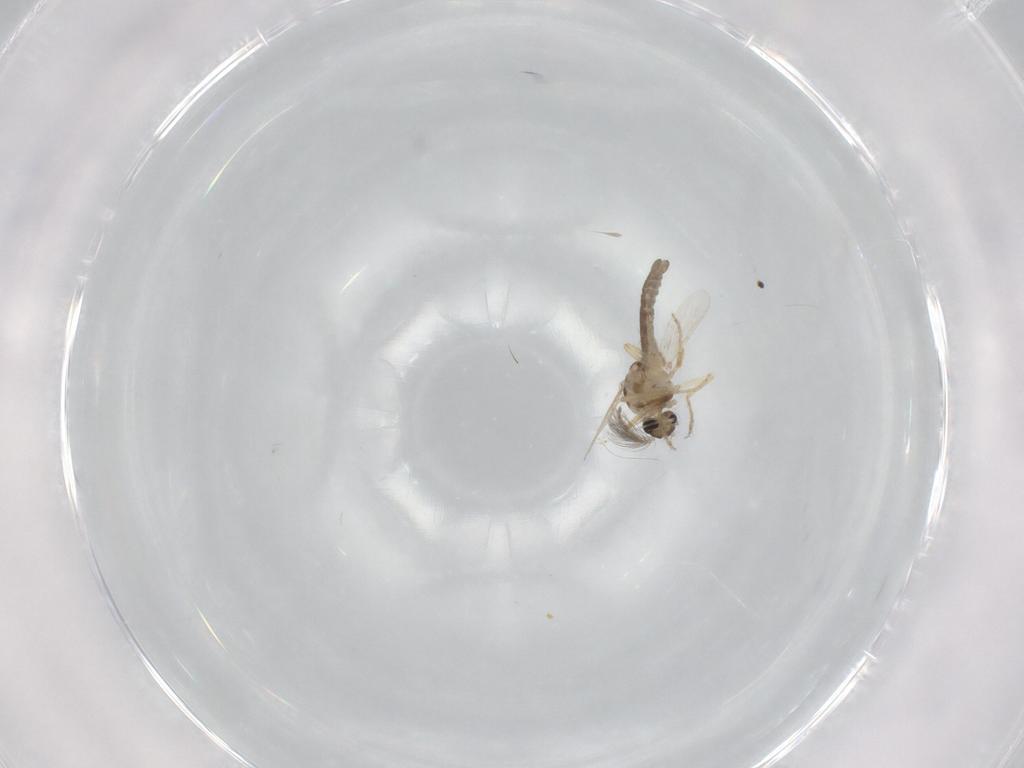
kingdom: Animalia
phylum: Arthropoda
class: Insecta
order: Diptera
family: Ceratopogonidae
